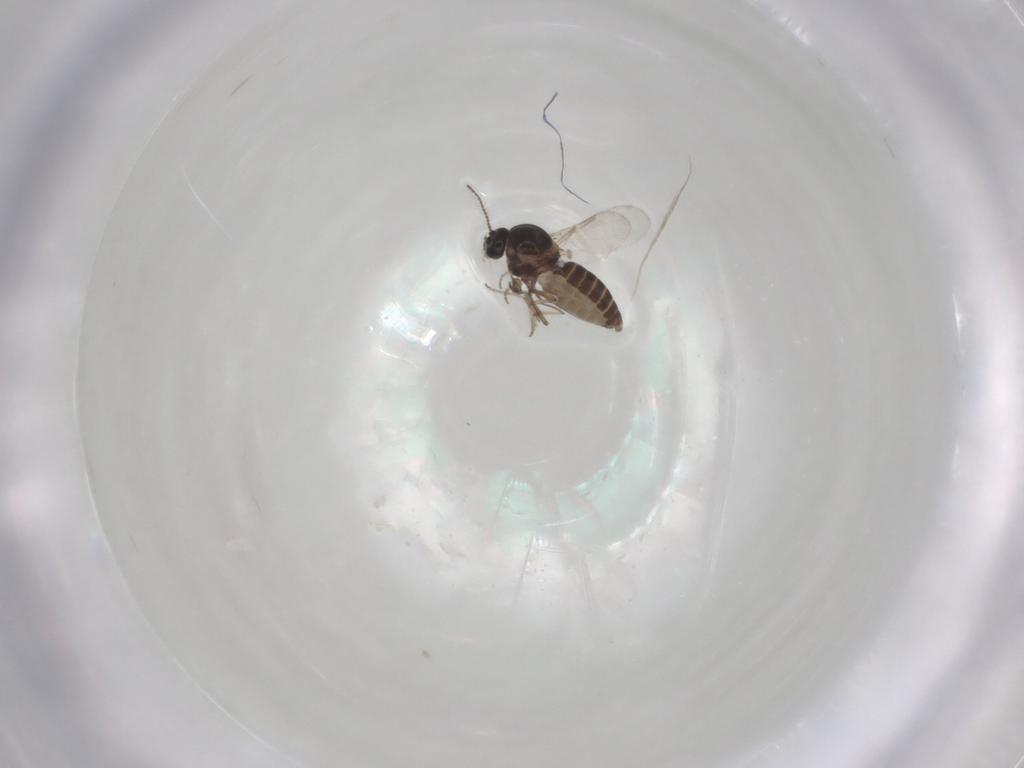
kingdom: Animalia
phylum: Arthropoda
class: Insecta
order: Diptera
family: Ceratopogonidae
